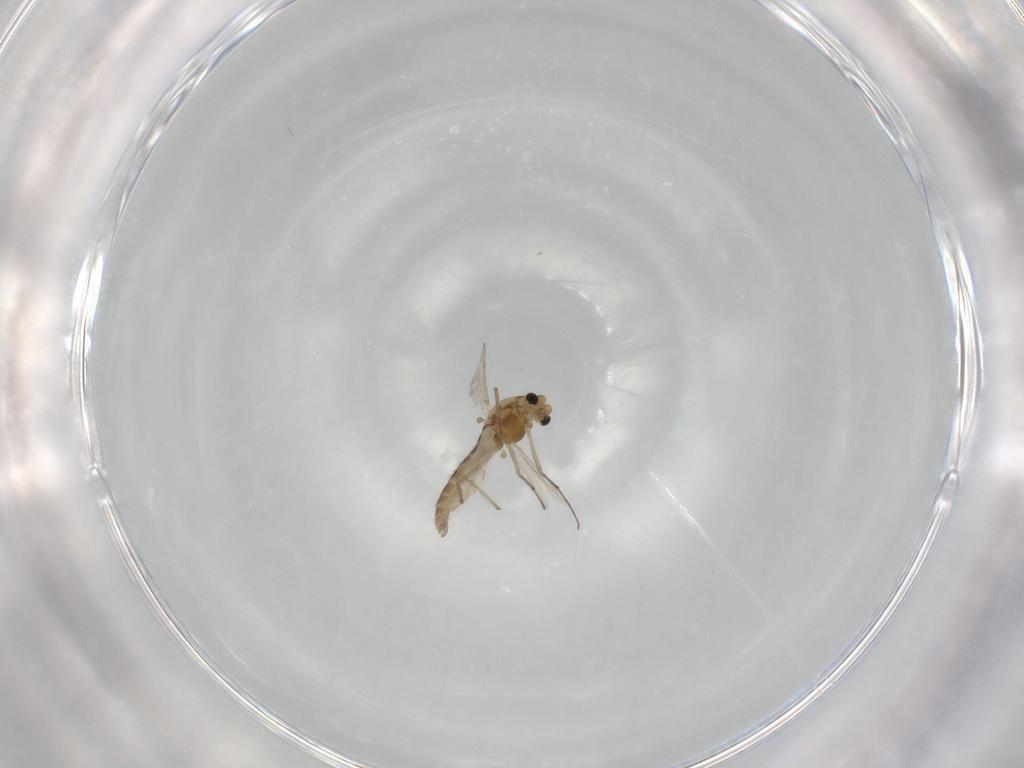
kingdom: Animalia
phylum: Arthropoda
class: Insecta
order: Diptera
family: Chironomidae
